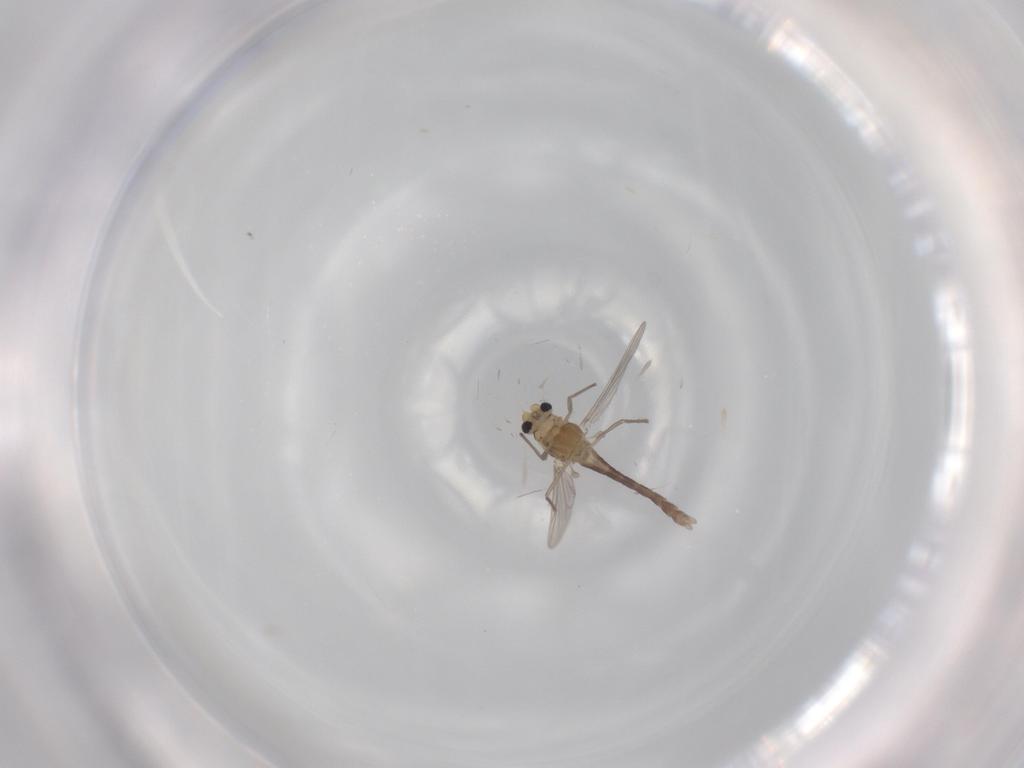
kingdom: Animalia
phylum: Arthropoda
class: Insecta
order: Diptera
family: Chironomidae
